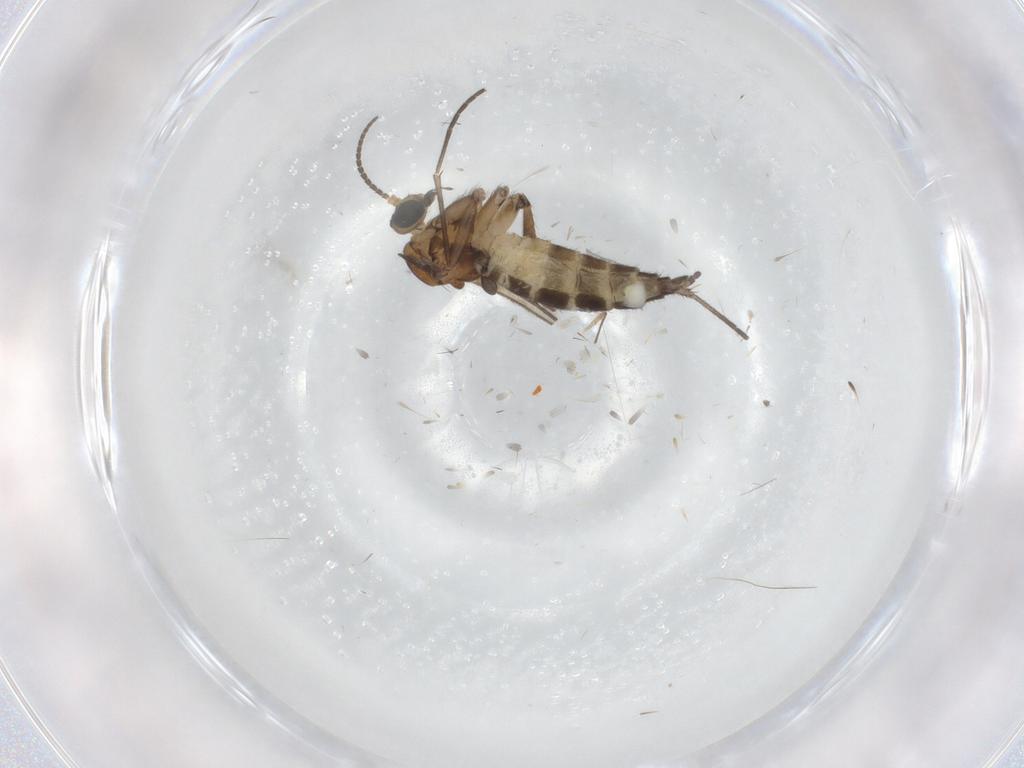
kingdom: Animalia
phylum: Arthropoda
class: Insecta
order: Diptera
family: Sciaridae
